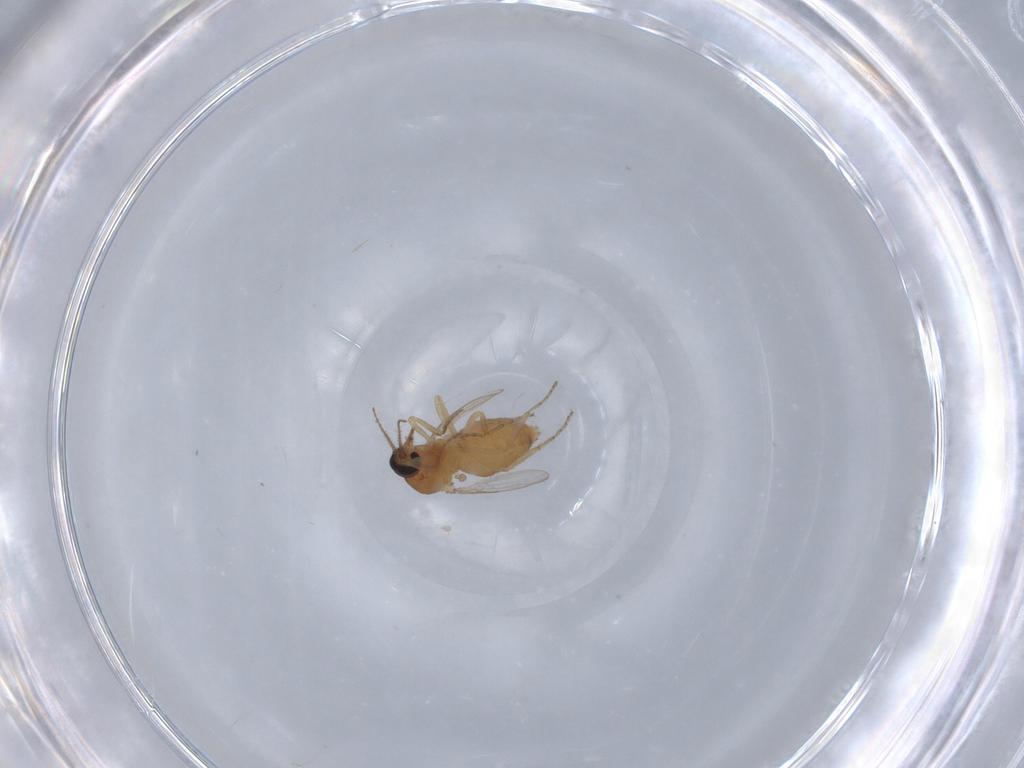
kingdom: Animalia
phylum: Arthropoda
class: Insecta
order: Diptera
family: Ceratopogonidae
